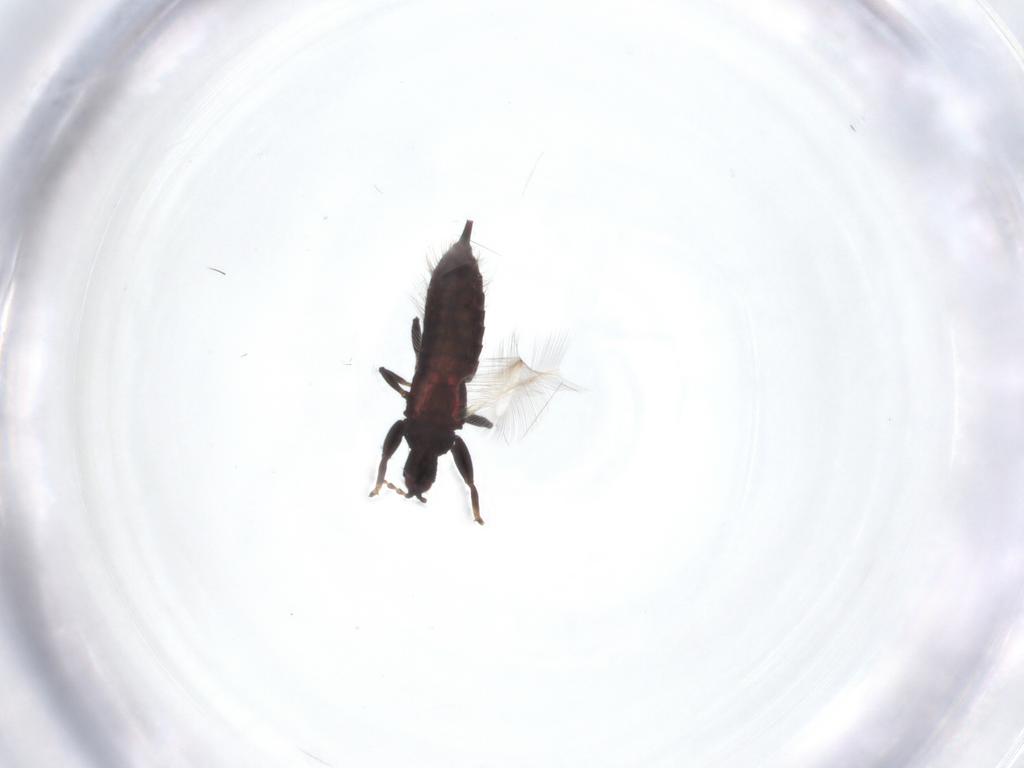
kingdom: Animalia
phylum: Arthropoda
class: Insecta
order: Thysanoptera
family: Phlaeothripidae
